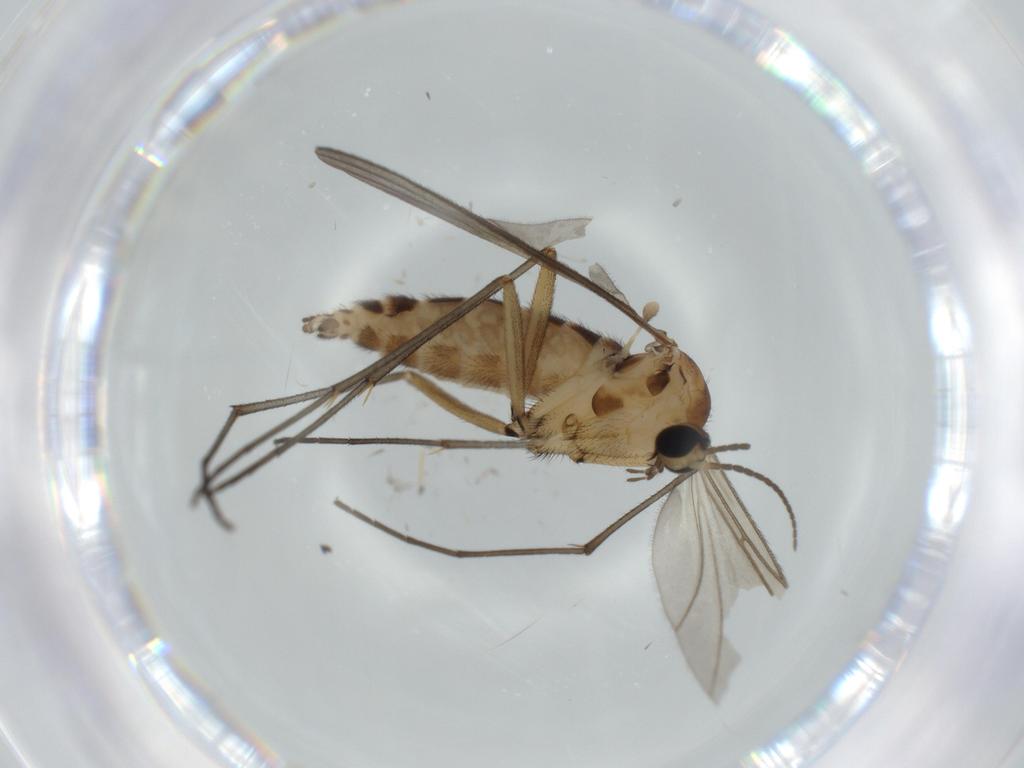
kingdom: Animalia
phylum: Arthropoda
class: Insecta
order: Diptera
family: Sciaridae
